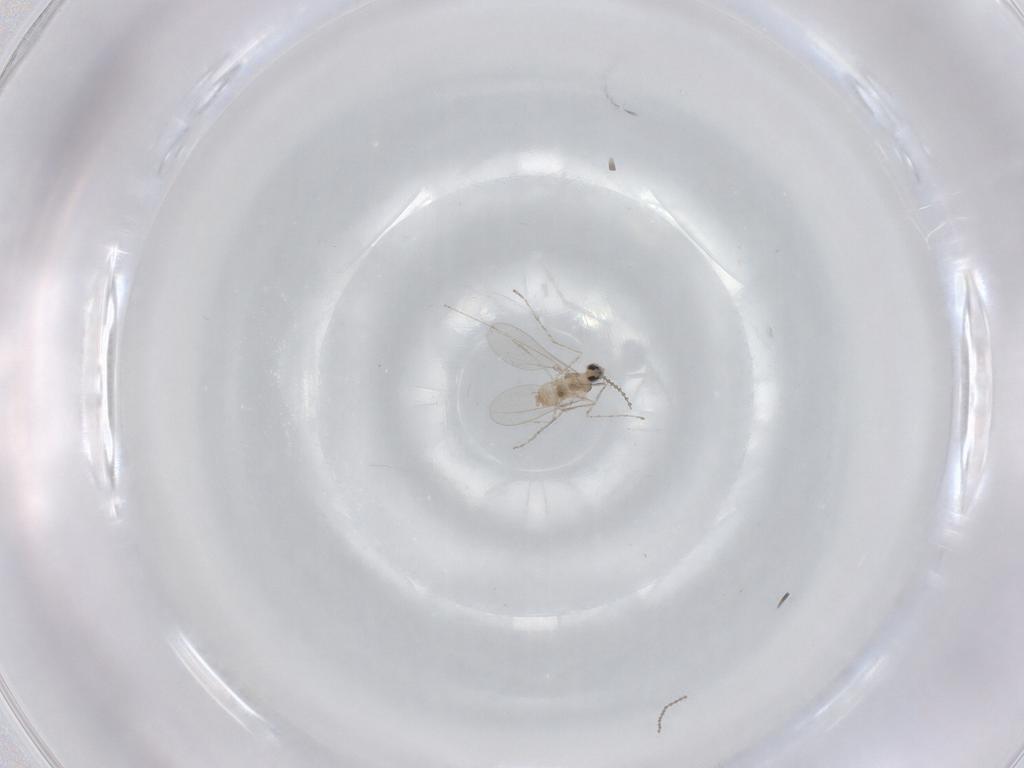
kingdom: Animalia
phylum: Arthropoda
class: Insecta
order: Diptera
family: Cecidomyiidae
